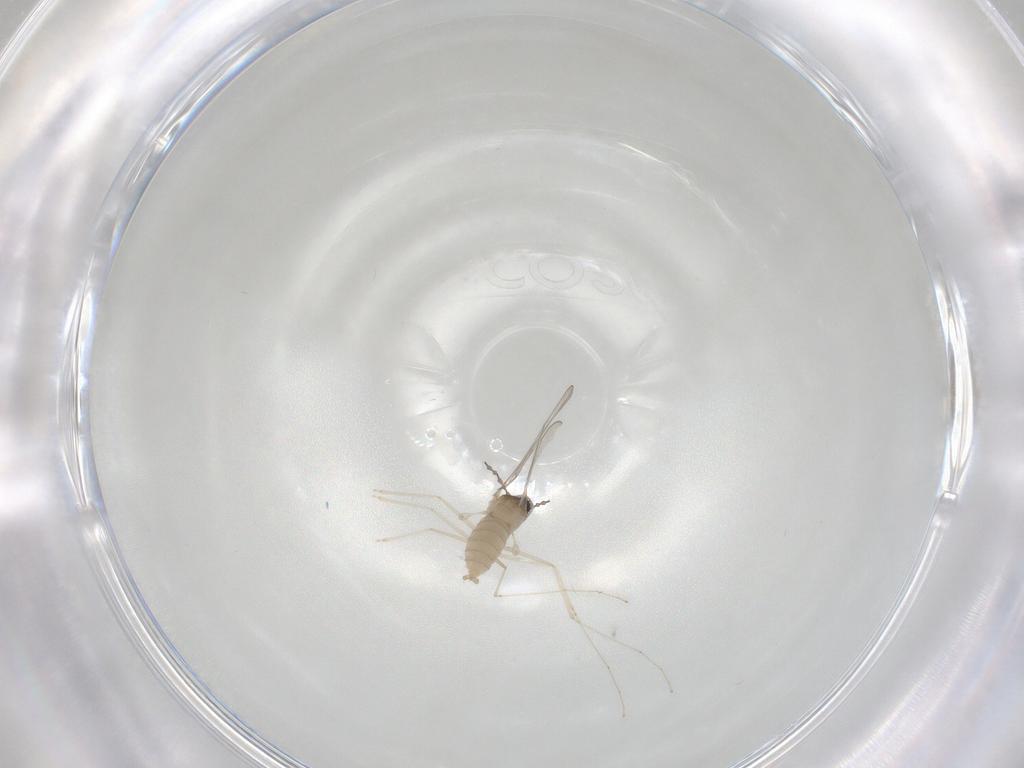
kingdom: Animalia
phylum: Arthropoda
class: Insecta
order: Diptera
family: Cecidomyiidae
